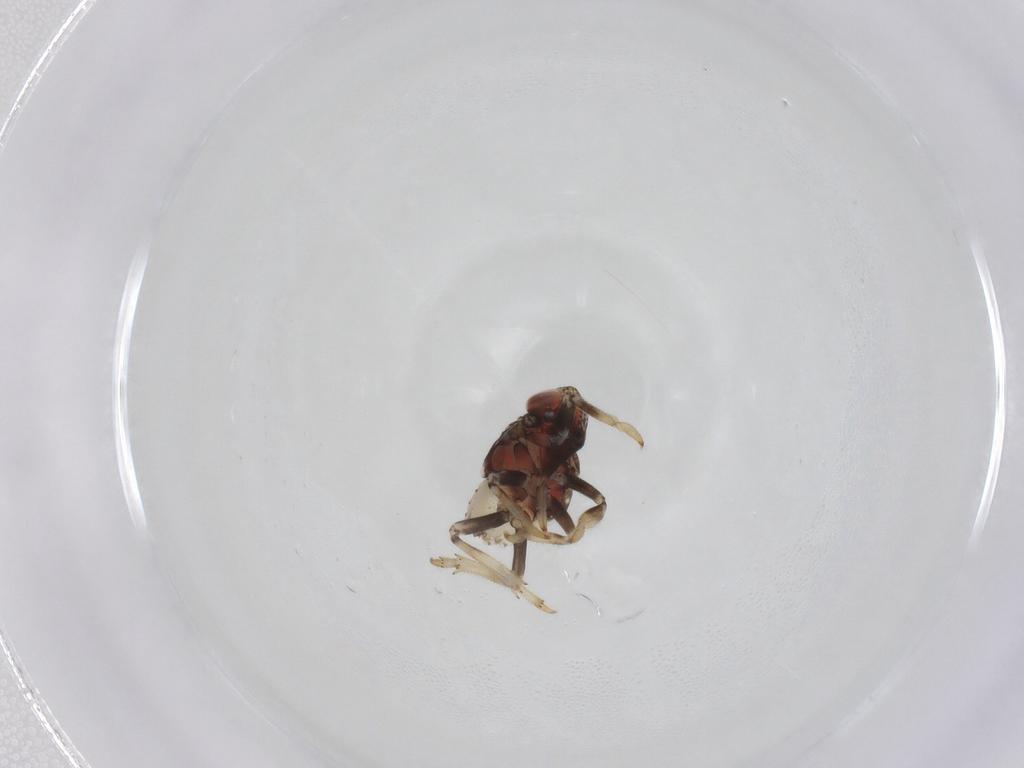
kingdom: Animalia
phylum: Arthropoda
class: Insecta
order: Hemiptera
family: Issidae
